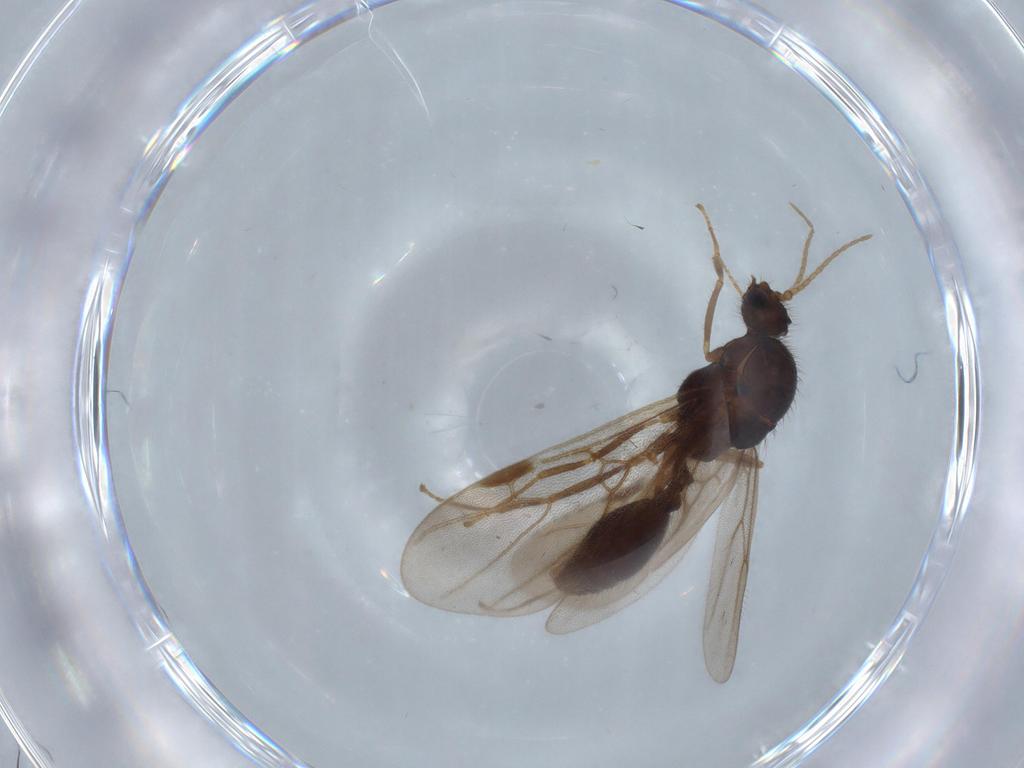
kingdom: Animalia
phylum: Arthropoda
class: Insecta
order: Hymenoptera
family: Formicidae
